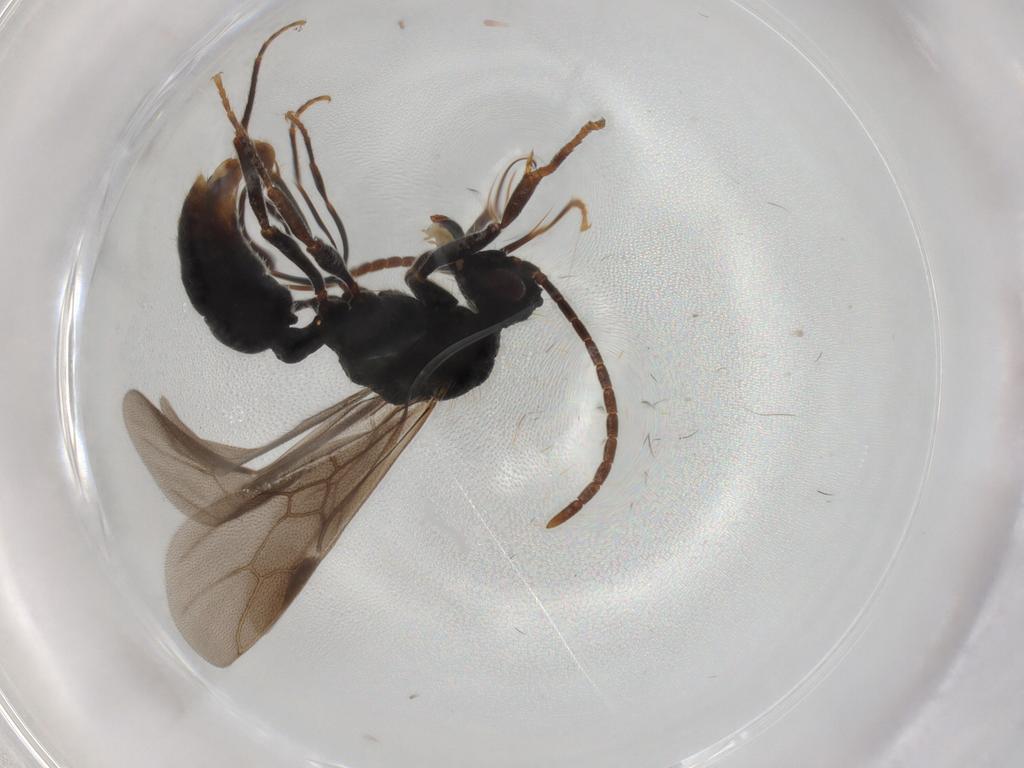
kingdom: Animalia
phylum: Arthropoda
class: Insecta
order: Hymenoptera
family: Formicidae
